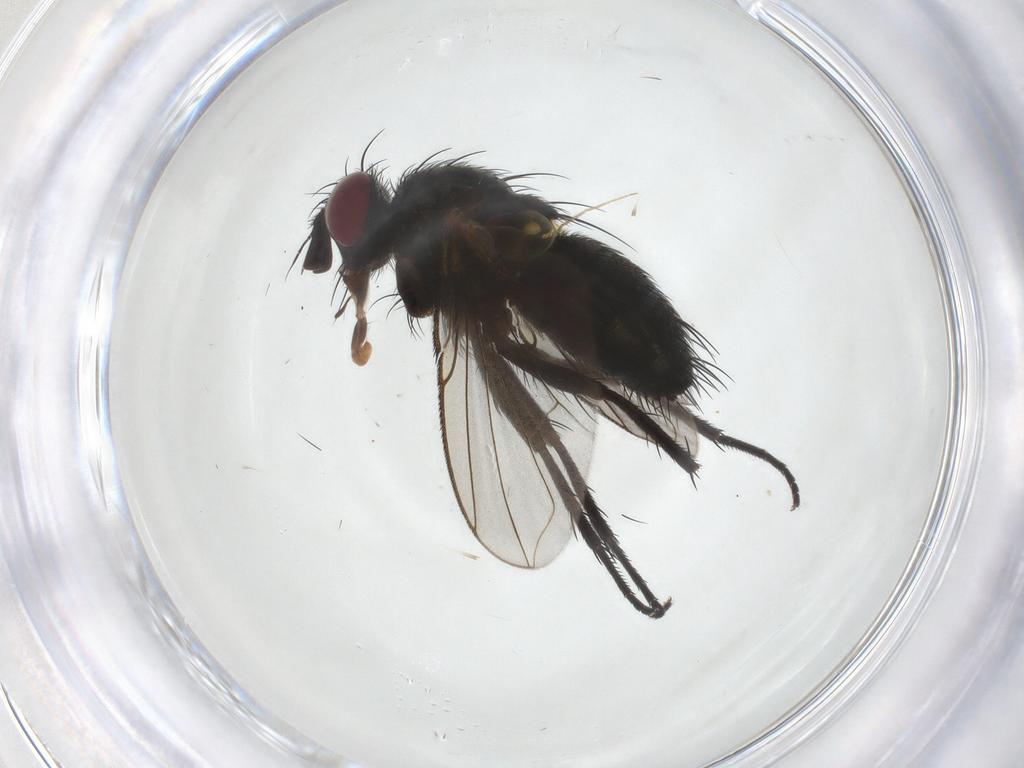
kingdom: Animalia
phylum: Arthropoda
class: Insecta
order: Diptera
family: Tachinidae
